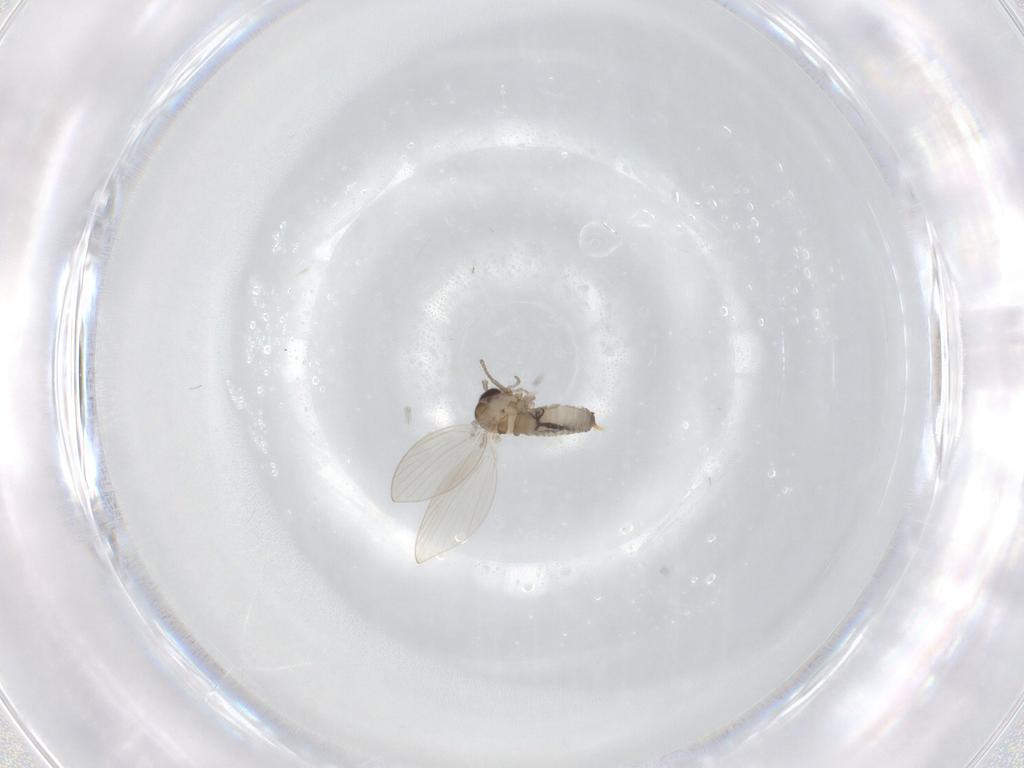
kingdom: Animalia
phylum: Arthropoda
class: Insecta
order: Diptera
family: Psychodidae
